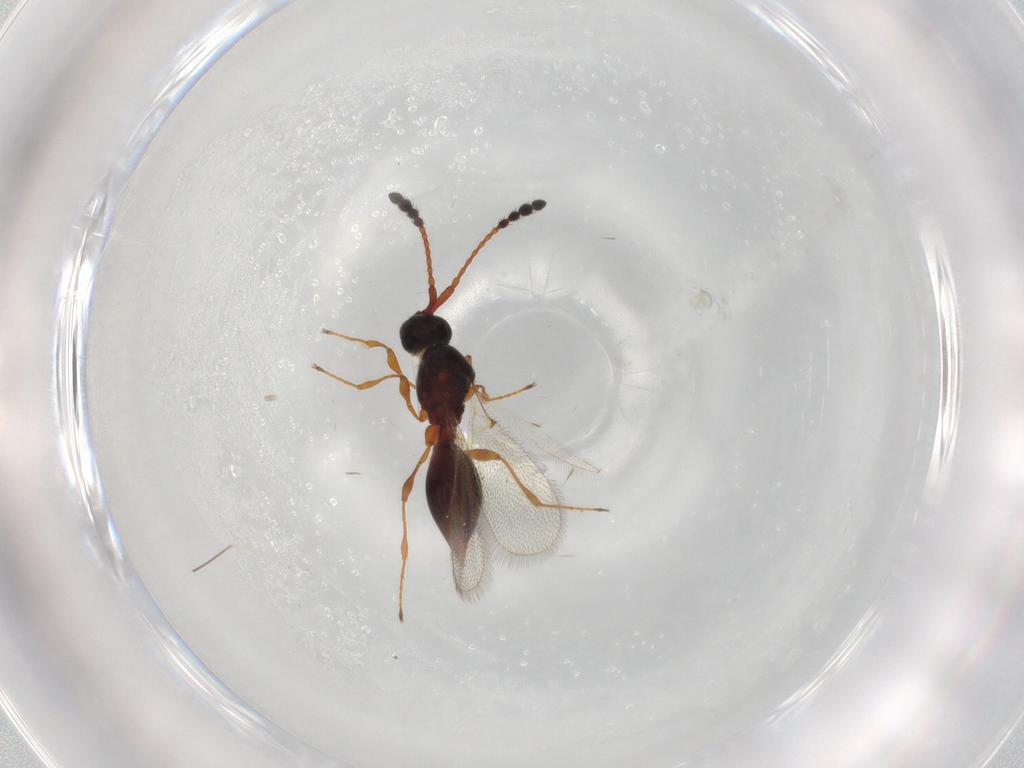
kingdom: Animalia
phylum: Arthropoda
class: Insecta
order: Hymenoptera
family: Diapriidae
